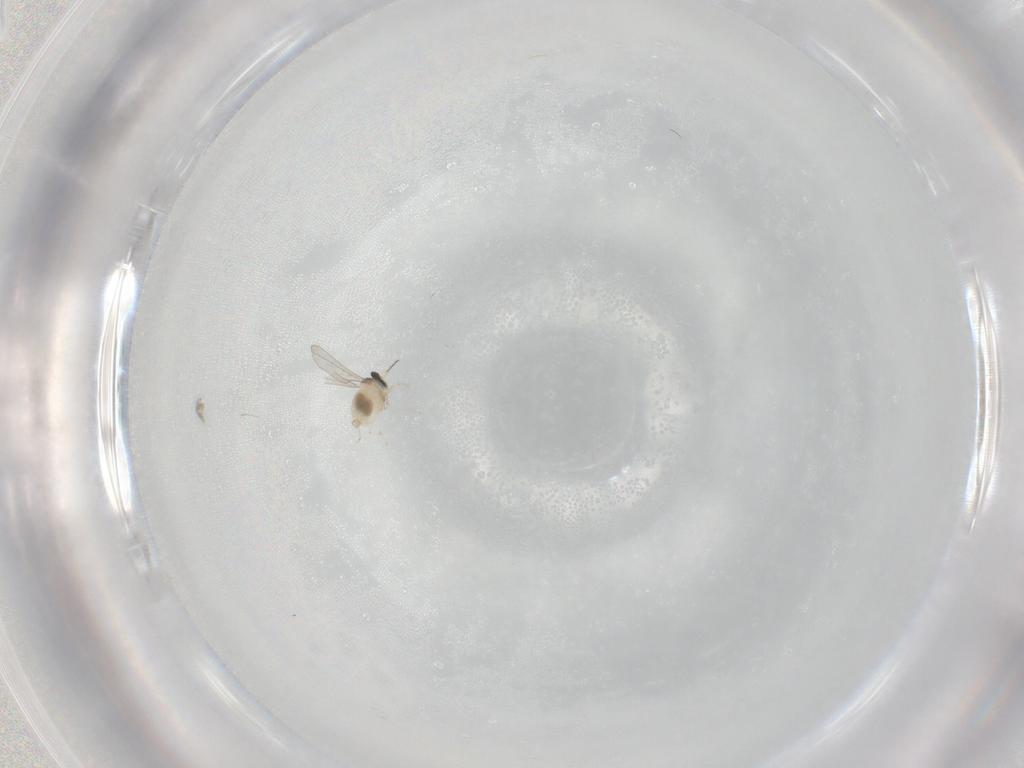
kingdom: Animalia
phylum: Arthropoda
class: Insecta
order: Diptera
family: Cecidomyiidae
